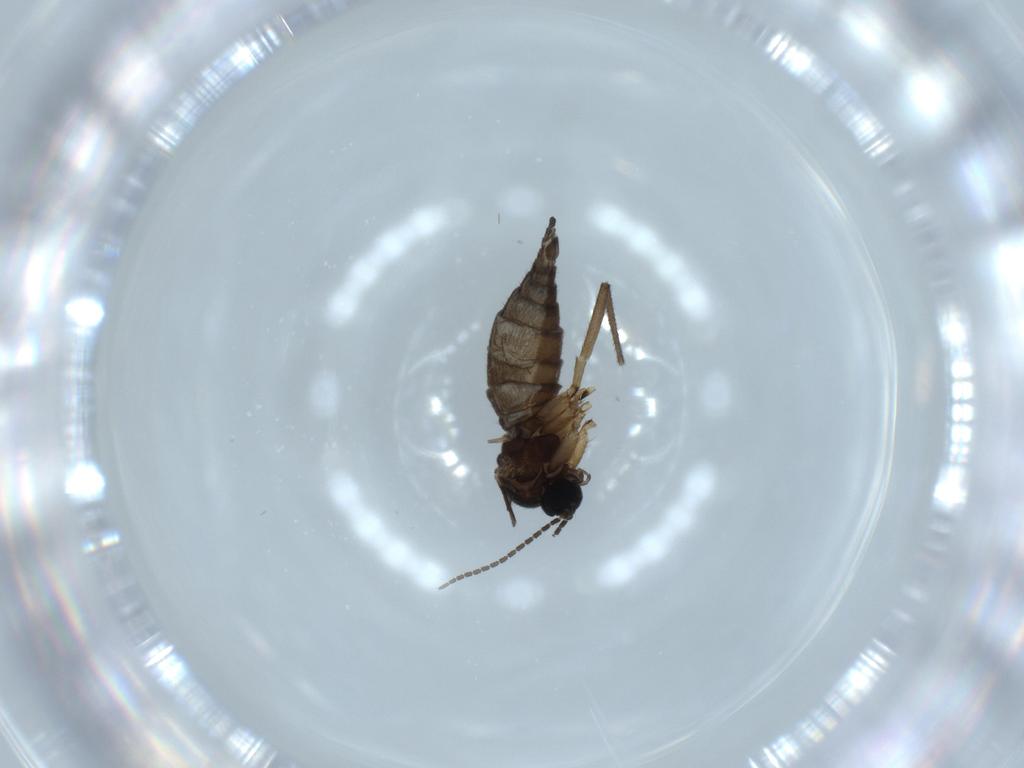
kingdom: Animalia
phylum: Arthropoda
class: Insecta
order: Diptera
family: Sciaridae
